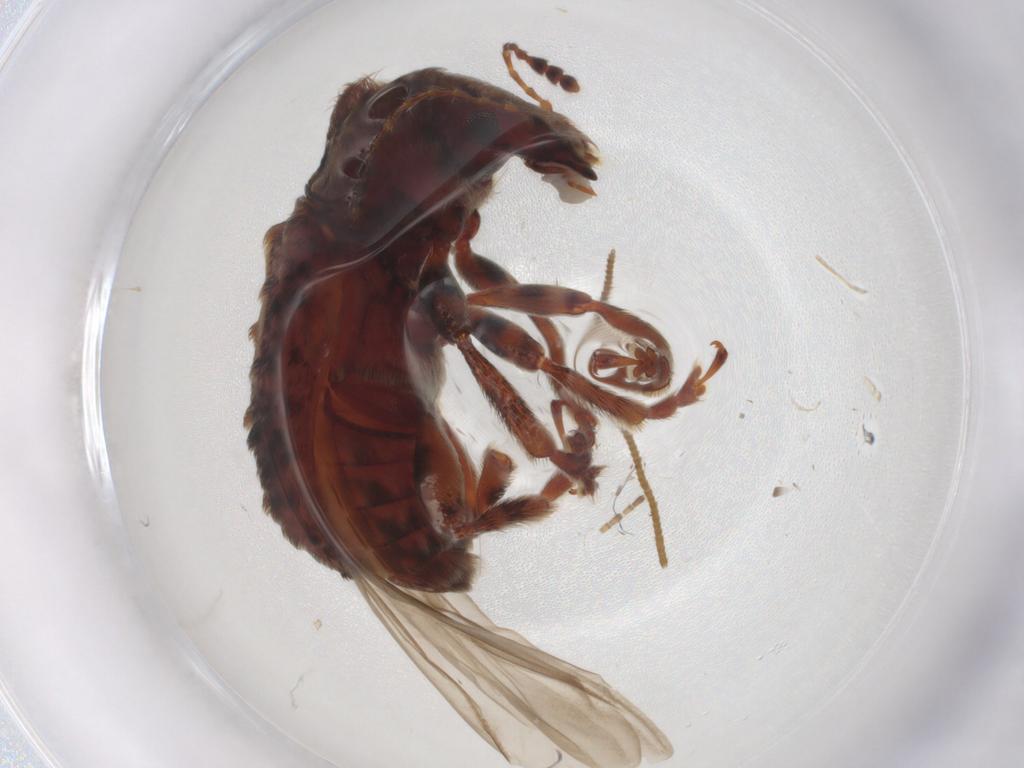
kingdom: Animalia
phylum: Arthropoda
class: Insecta
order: Coleoptera
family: Anthribidae
